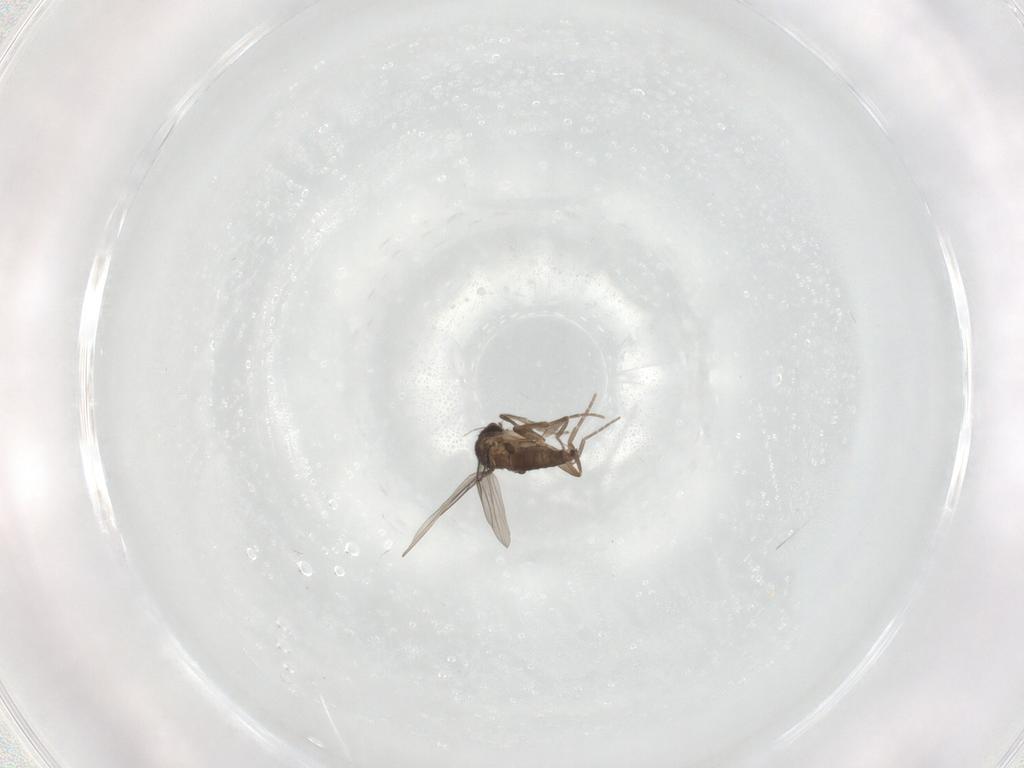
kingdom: Animalia
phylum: Arthropoda
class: Insecta
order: Diptera
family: Phoridae
